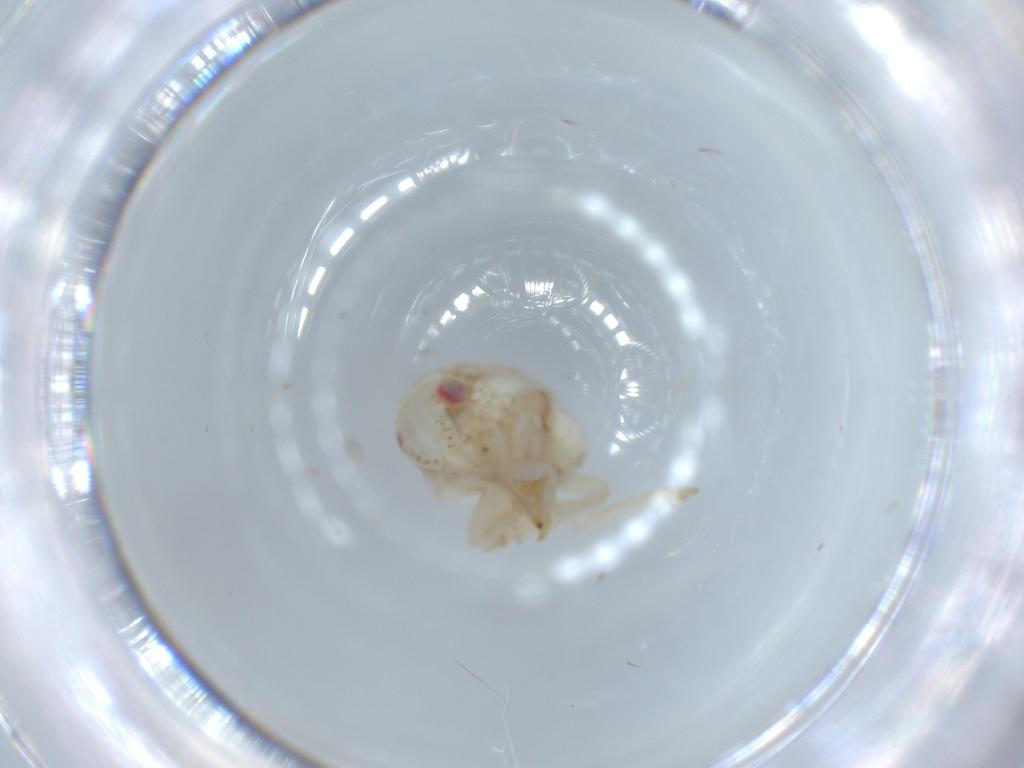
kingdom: Animalia
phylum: Arthropoda
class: Insecta
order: Hemiptera
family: Acanaloniidae
